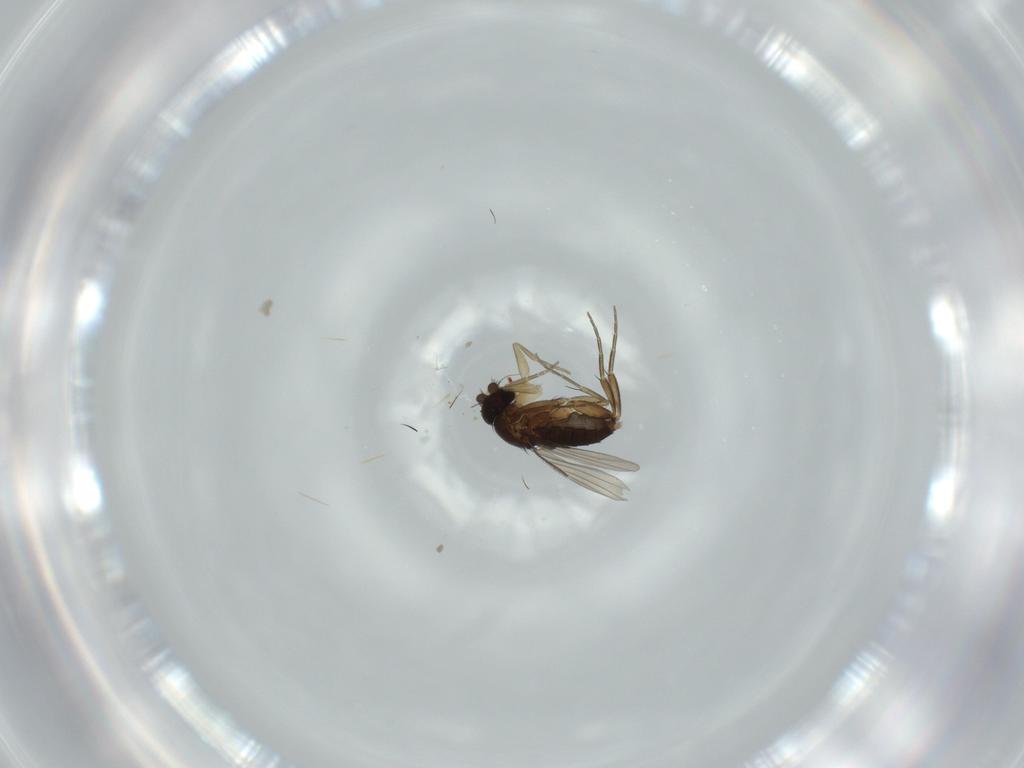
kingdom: Animalia
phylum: Arthropoda
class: Insecta
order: Diptera
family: Phoridae
